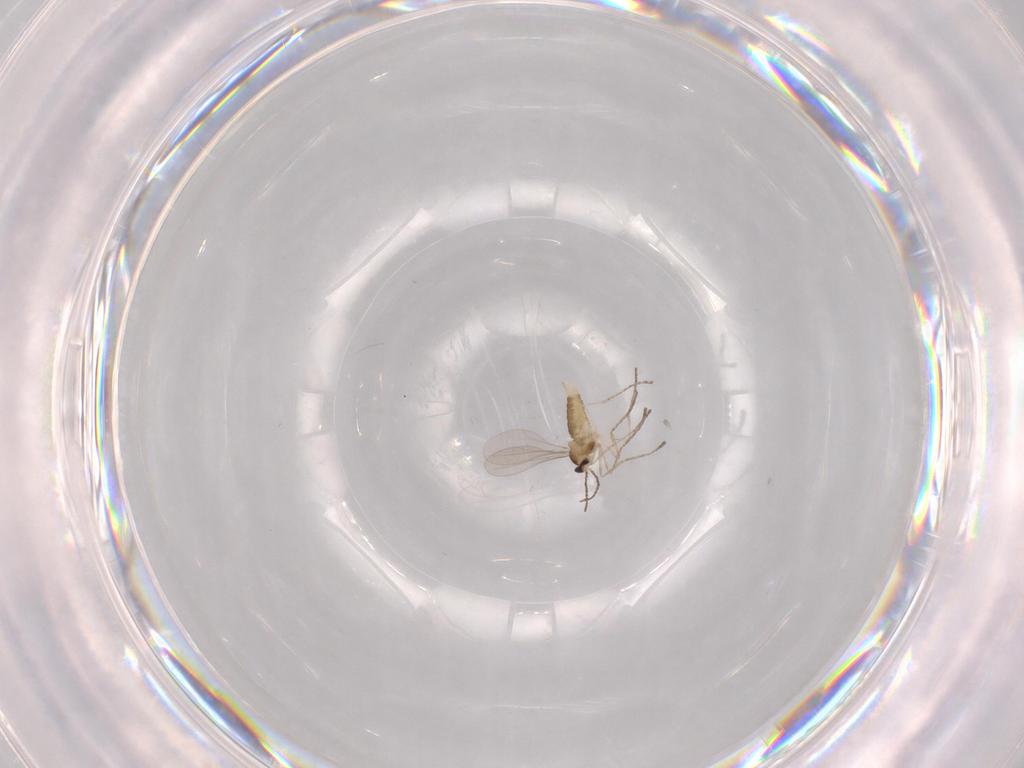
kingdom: Animalia
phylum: Arthropoda
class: Insecta
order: Diptera
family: Cecidomyiidae
